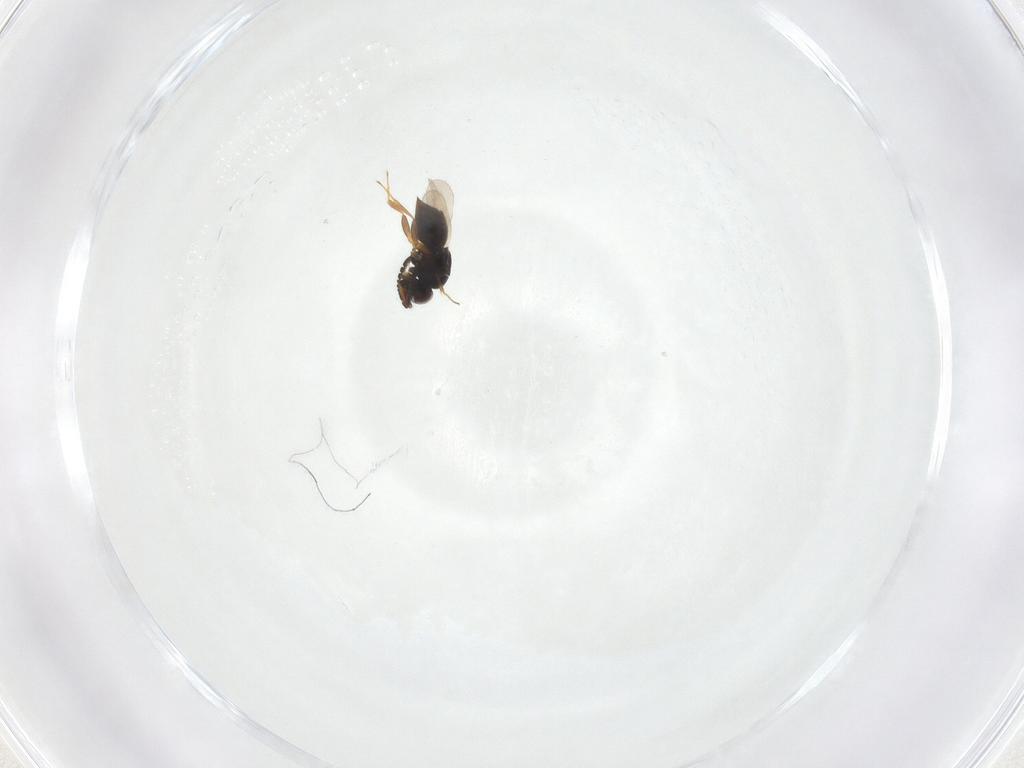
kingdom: Animalia
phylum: Arthropoda
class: Insecta
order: Hymenoptera
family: Ceraphronidae
